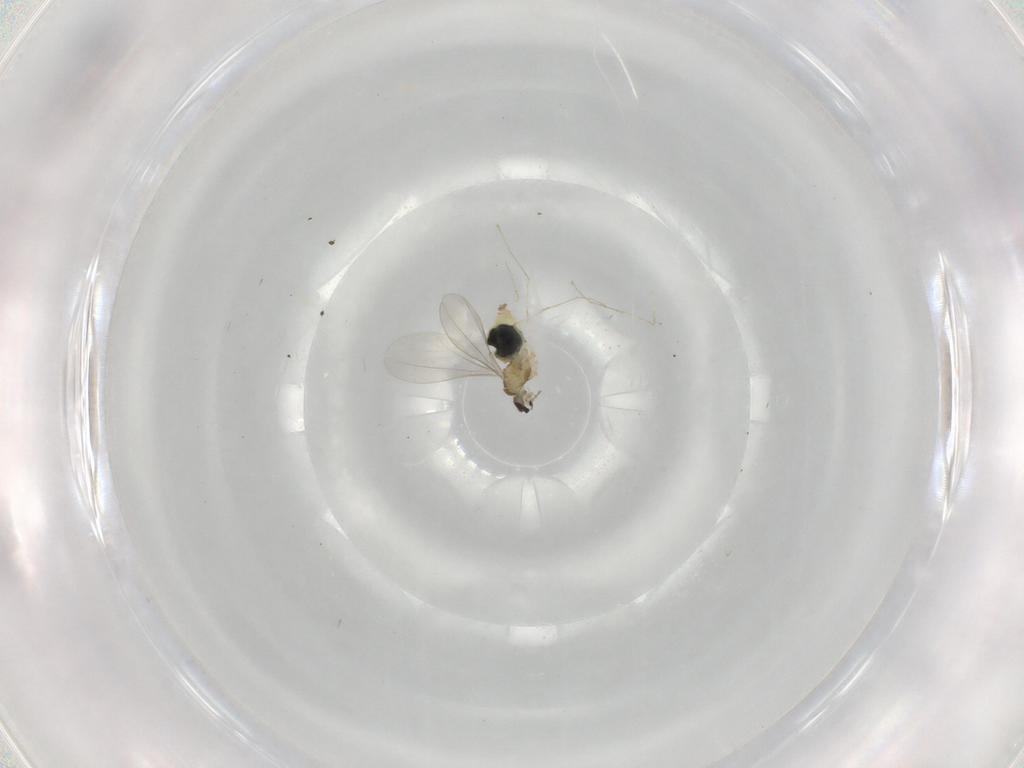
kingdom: Animalia
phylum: Arthropoda
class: Insecta
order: Diptera
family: Cecidomyiidae
